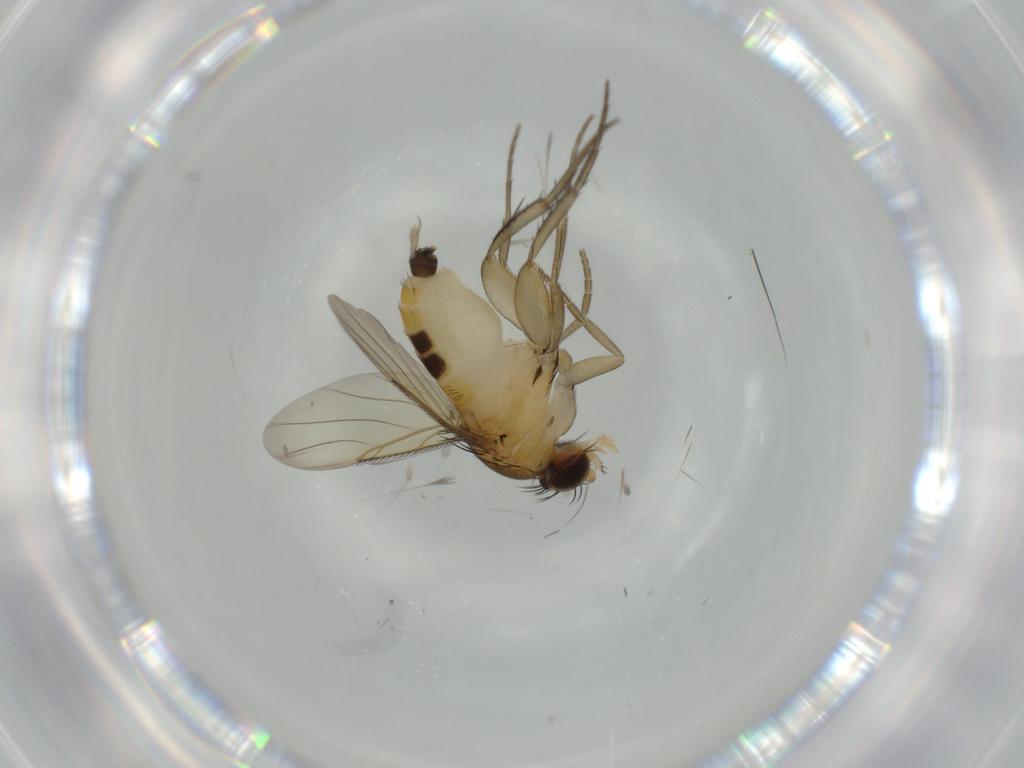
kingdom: Animalia
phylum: Arthropoda
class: Insecta
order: Diptera
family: Phoridae
